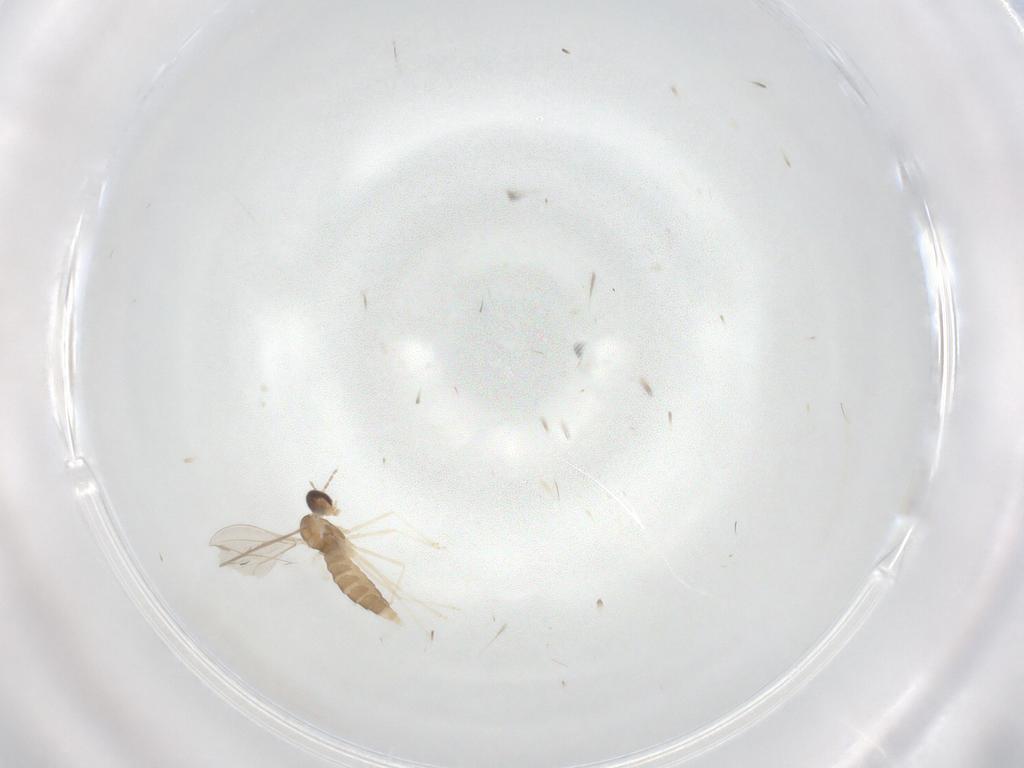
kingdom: Animalia
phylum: Arthropoda
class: Insecta
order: Diptera
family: Cecidomyiidae
